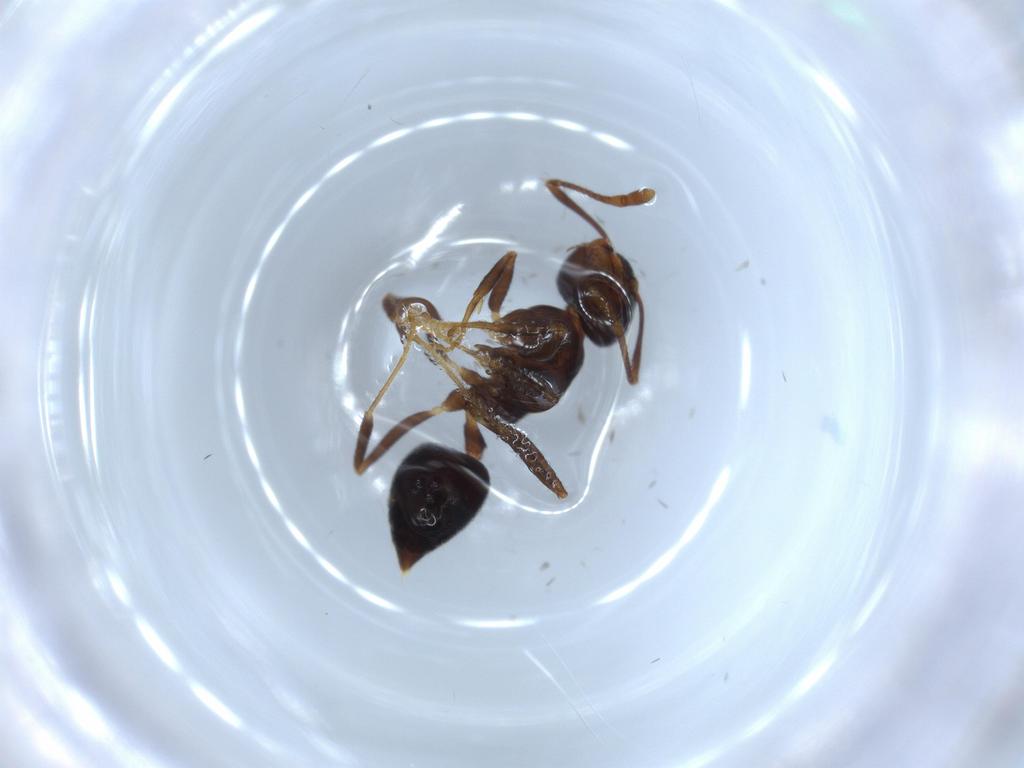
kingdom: Animalia
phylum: Arthropoda
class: Insecta
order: Hymenoptera
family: Formicidae
